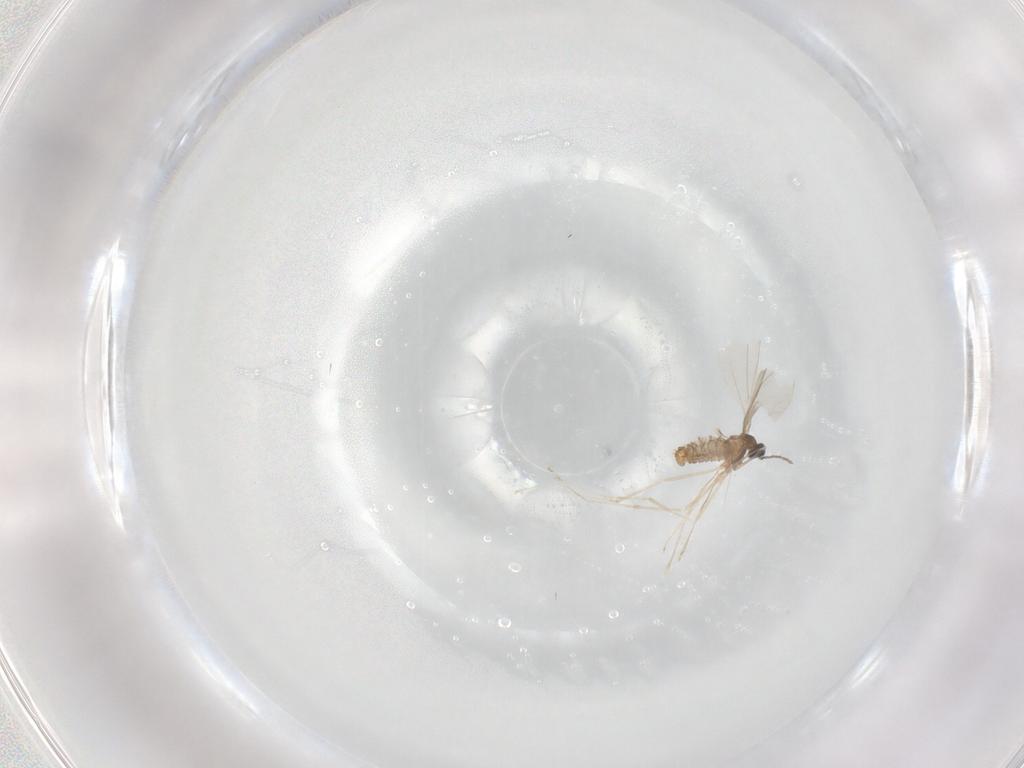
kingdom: Animalia
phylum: Arthropoda
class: Insecta
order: Diptera
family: Cecidomyiidae
